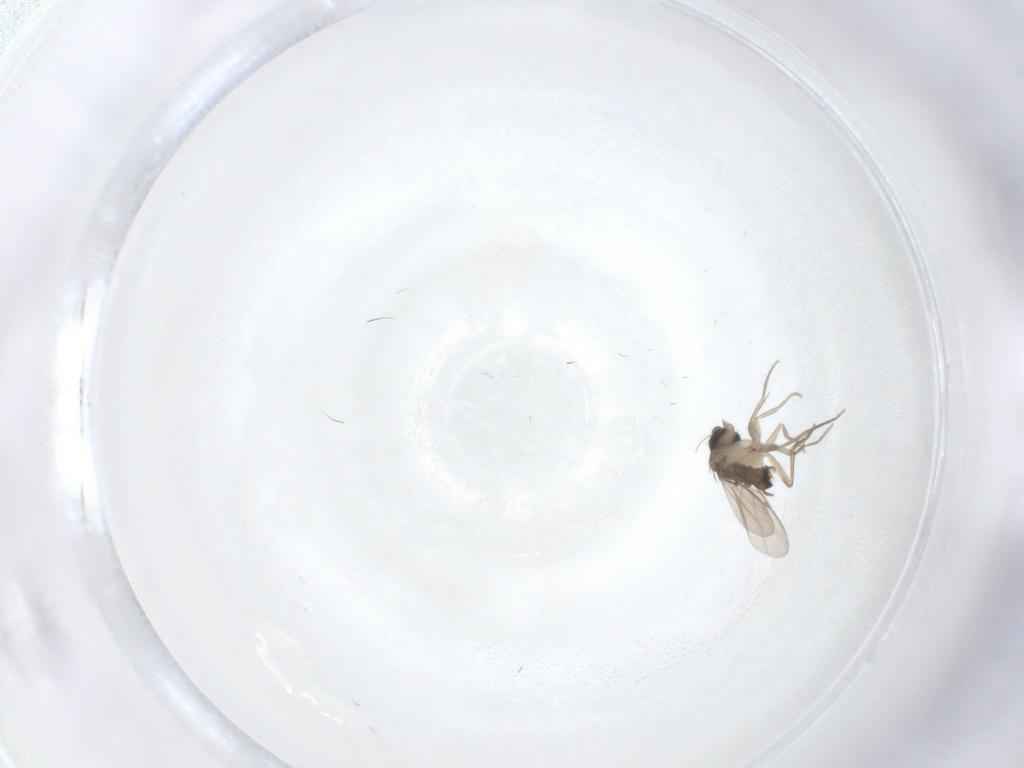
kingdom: Animalia
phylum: Arthropoda
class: Insecta
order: Diptera
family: Phoridae
